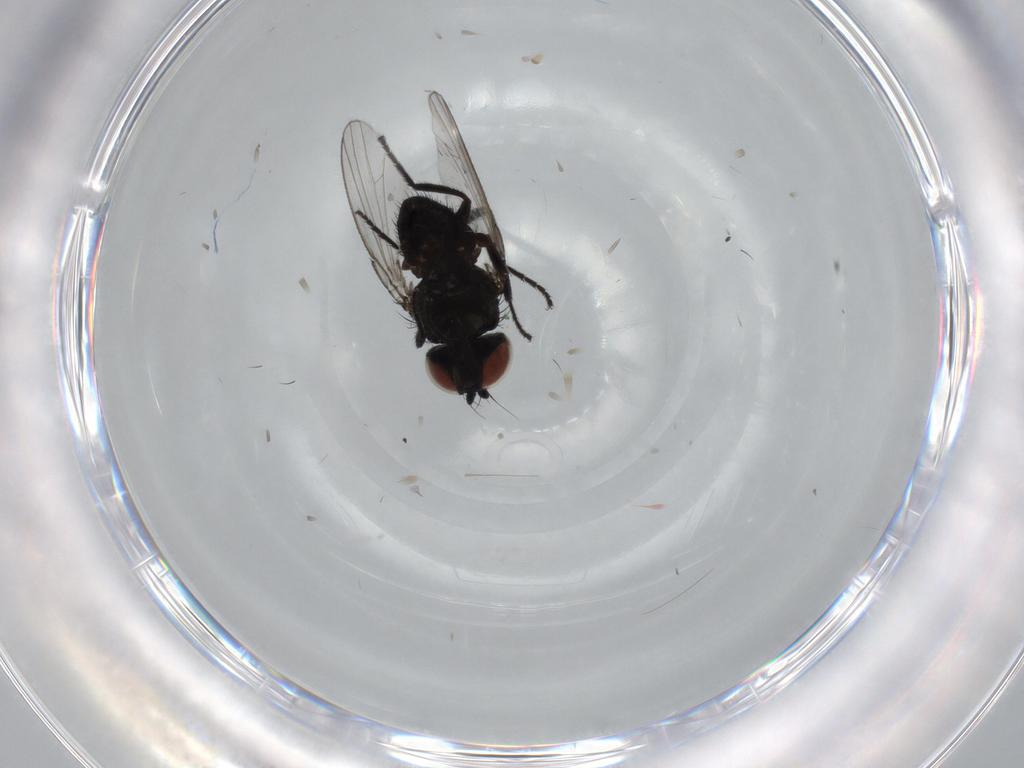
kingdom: Animalia
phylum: Arthropoda
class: Insecta
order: Diptera
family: Milichiidae
